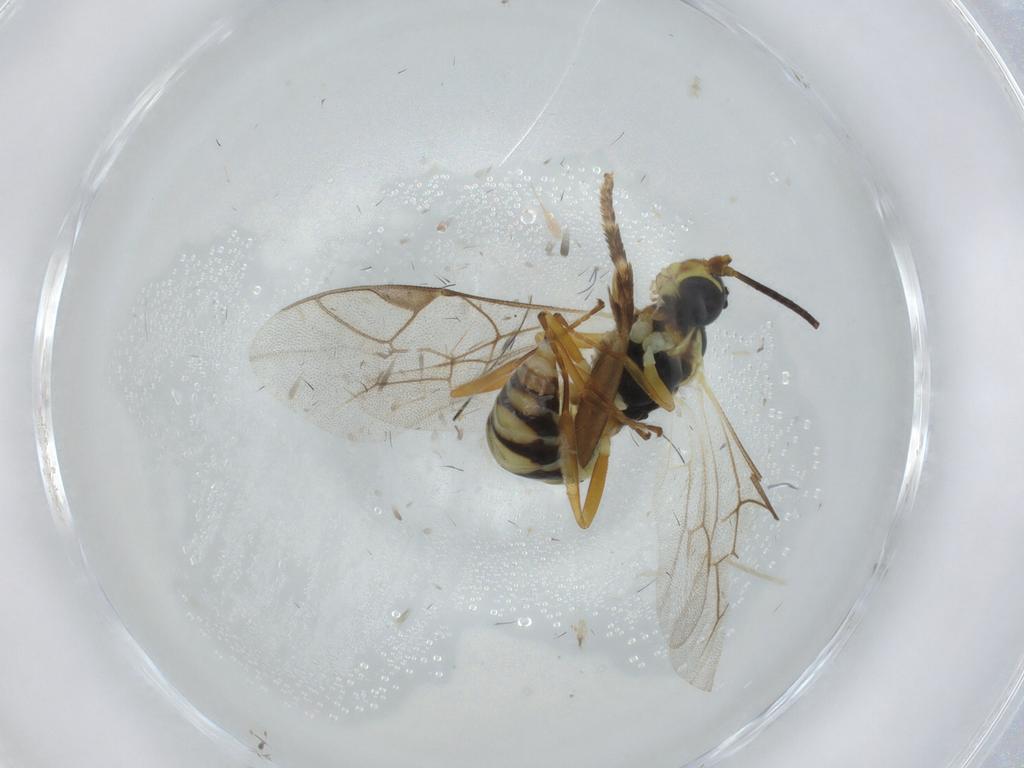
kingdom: Animalia
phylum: Arthropoda
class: Insecta
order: Hymenoptera
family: Ichneumonidae
